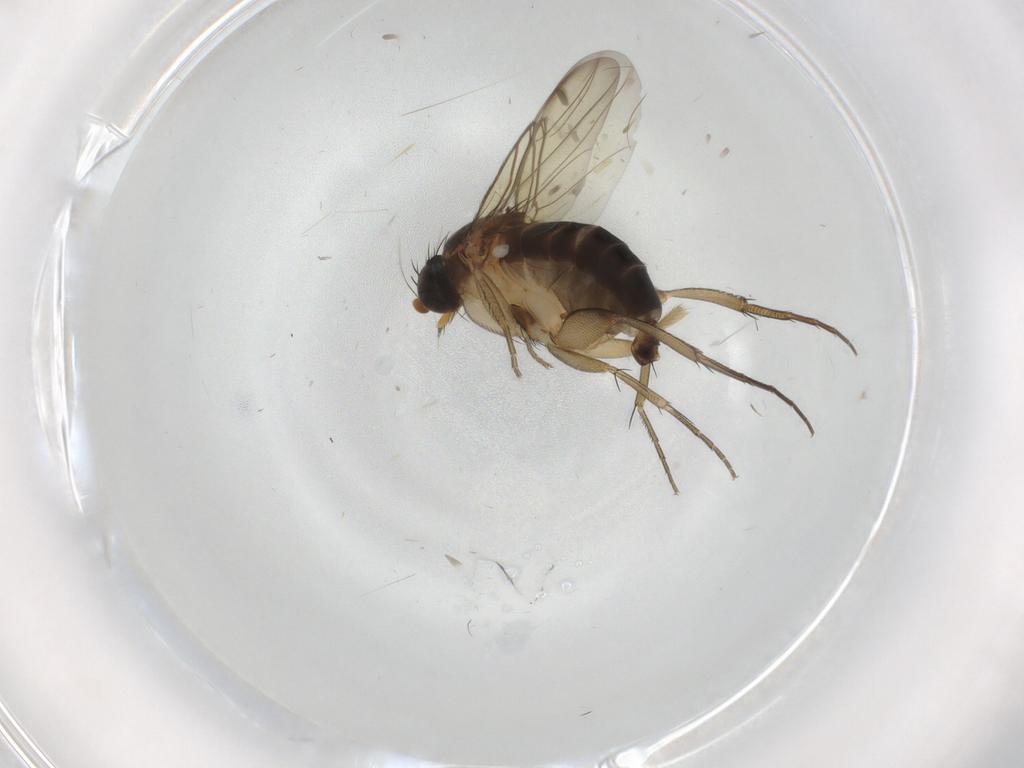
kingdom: Animalia
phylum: Arthropoda
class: Insecta
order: Diptera
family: Phoridae
